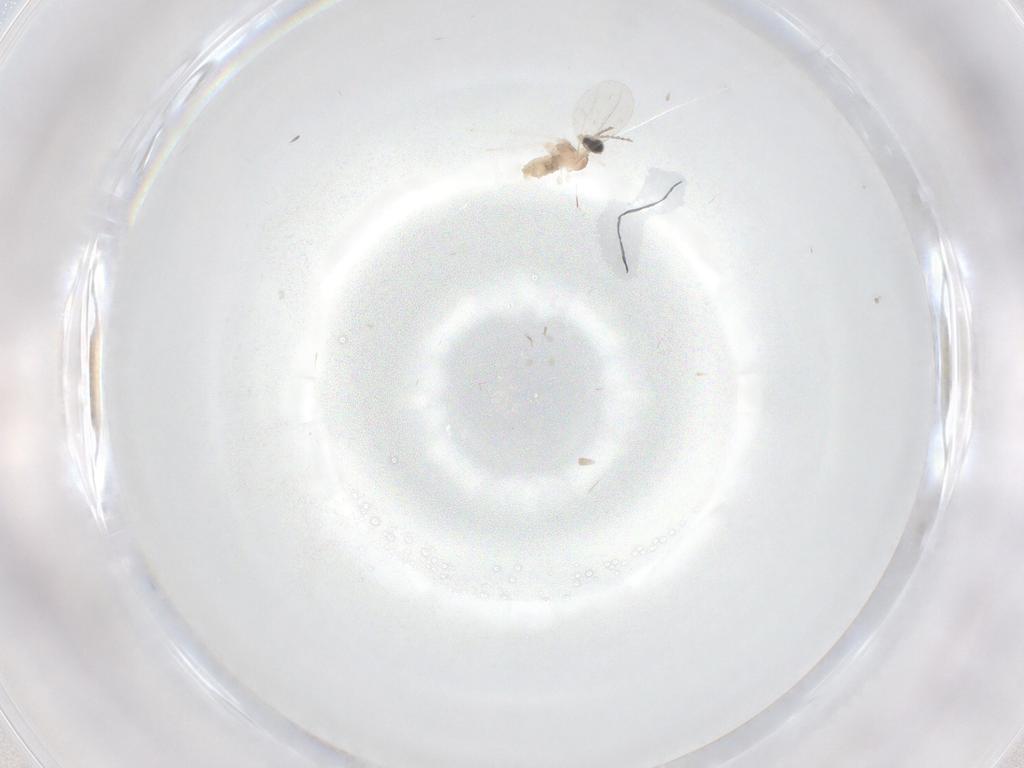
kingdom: Animalia
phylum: Arthropoda
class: Insecta
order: Diptera
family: Cecidomyiidae
